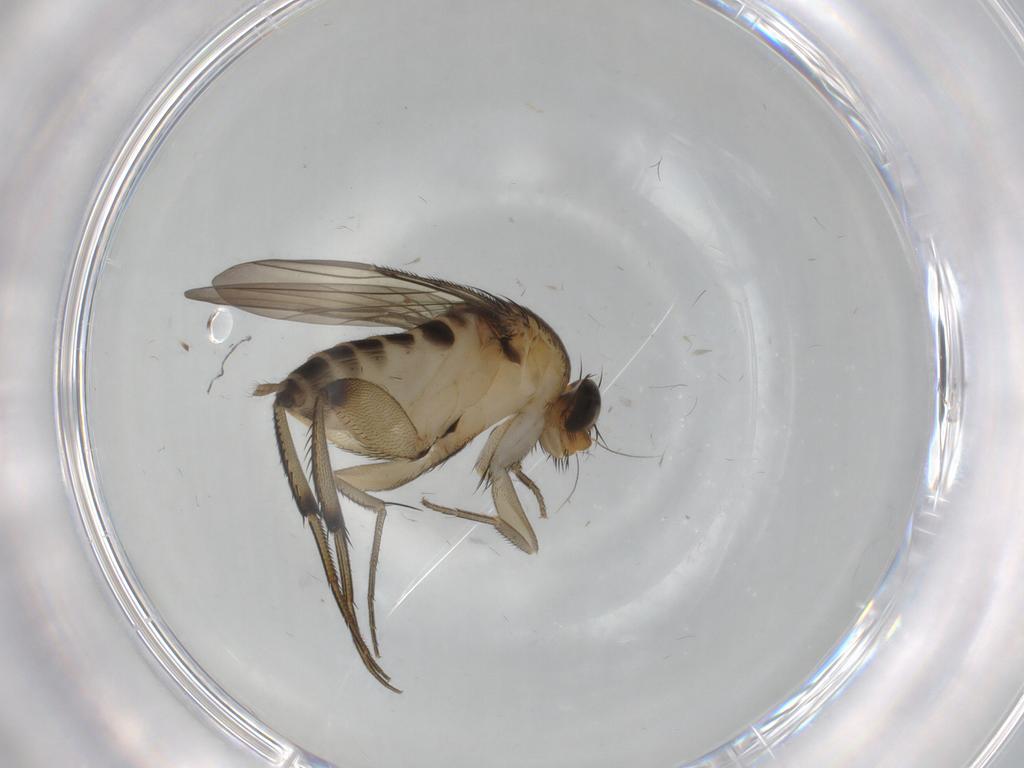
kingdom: Animalia
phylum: Arthropoda
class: Insecta
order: Diptera
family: Phoridae
